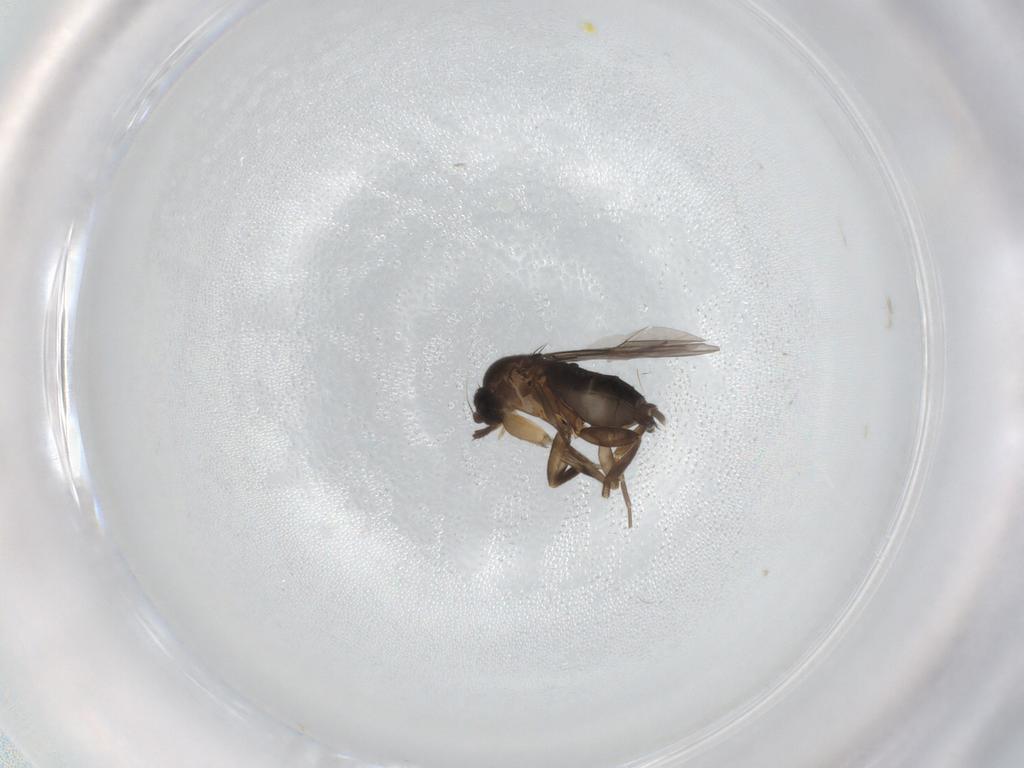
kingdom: Animalia
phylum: Arthropoda
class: Insecta
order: Diptera
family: Phoridae
